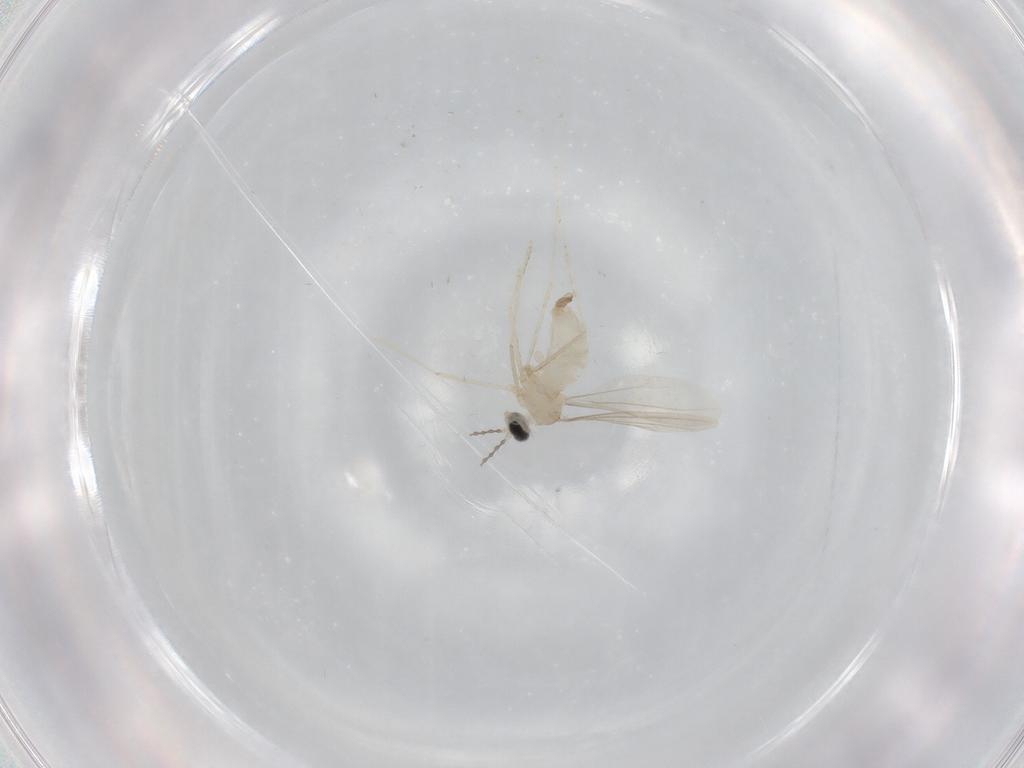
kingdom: Animalia
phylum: Arthropoda
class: Insecta
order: Diptera
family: Cecidomyiidae
